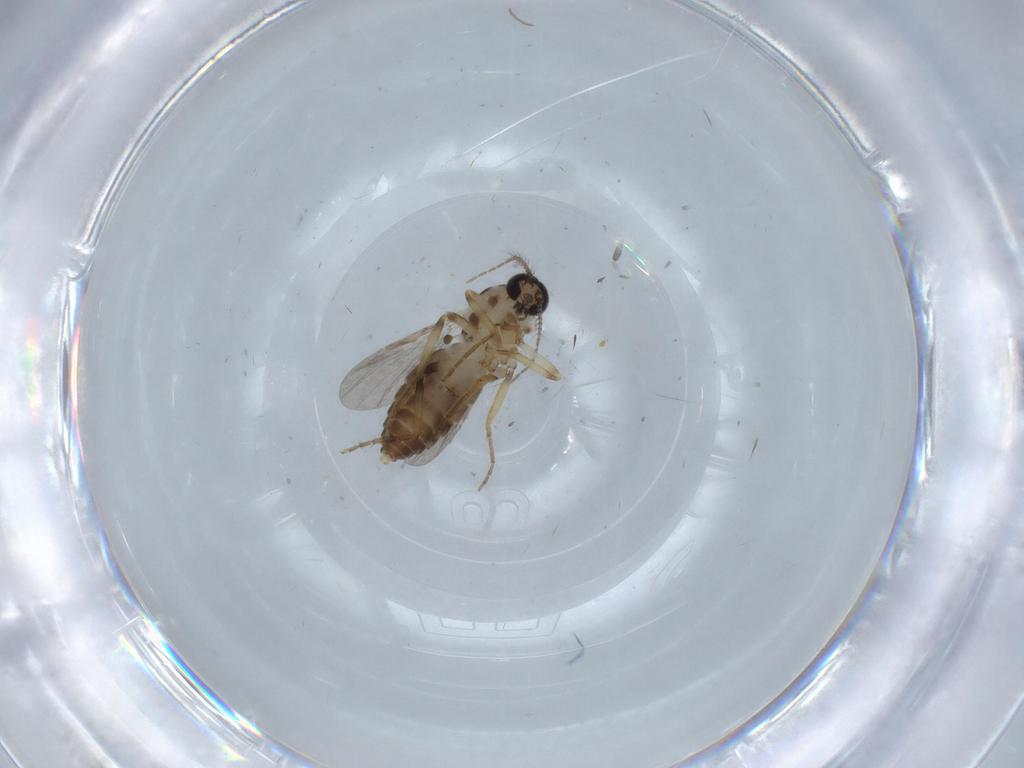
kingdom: Animalia
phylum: Arthropoda
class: Insecta
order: Diptera
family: Ceratopogonidae
